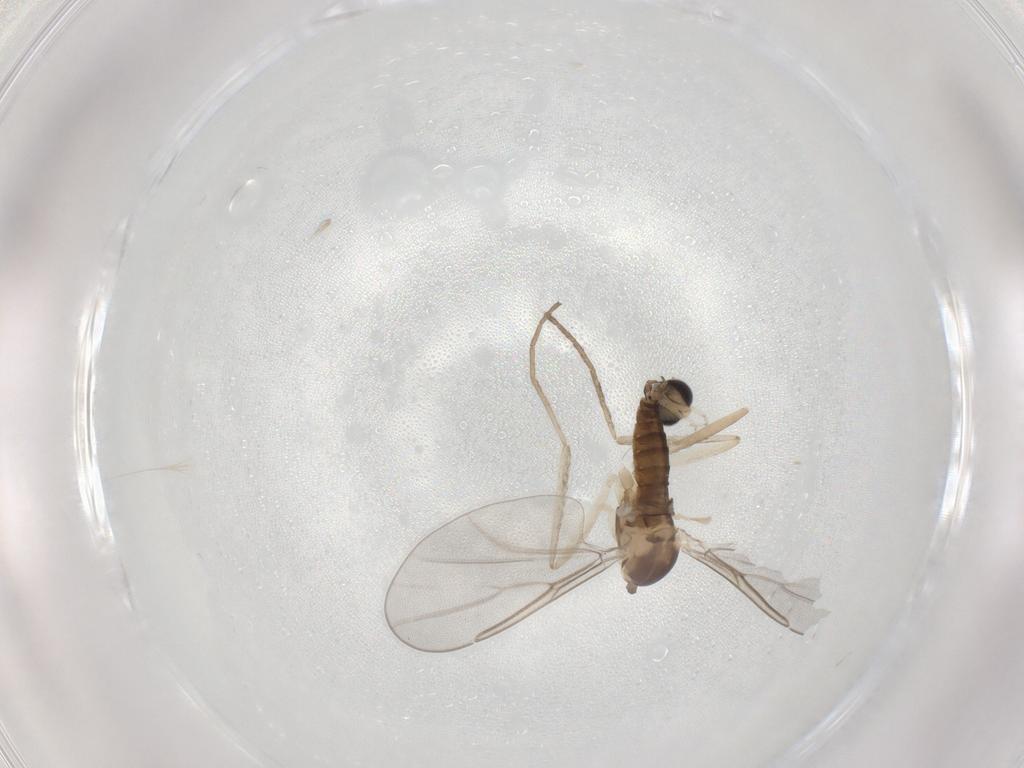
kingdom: Animalia
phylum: Arthropoda
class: Insecta
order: Diptera
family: Cecidomyiidae
